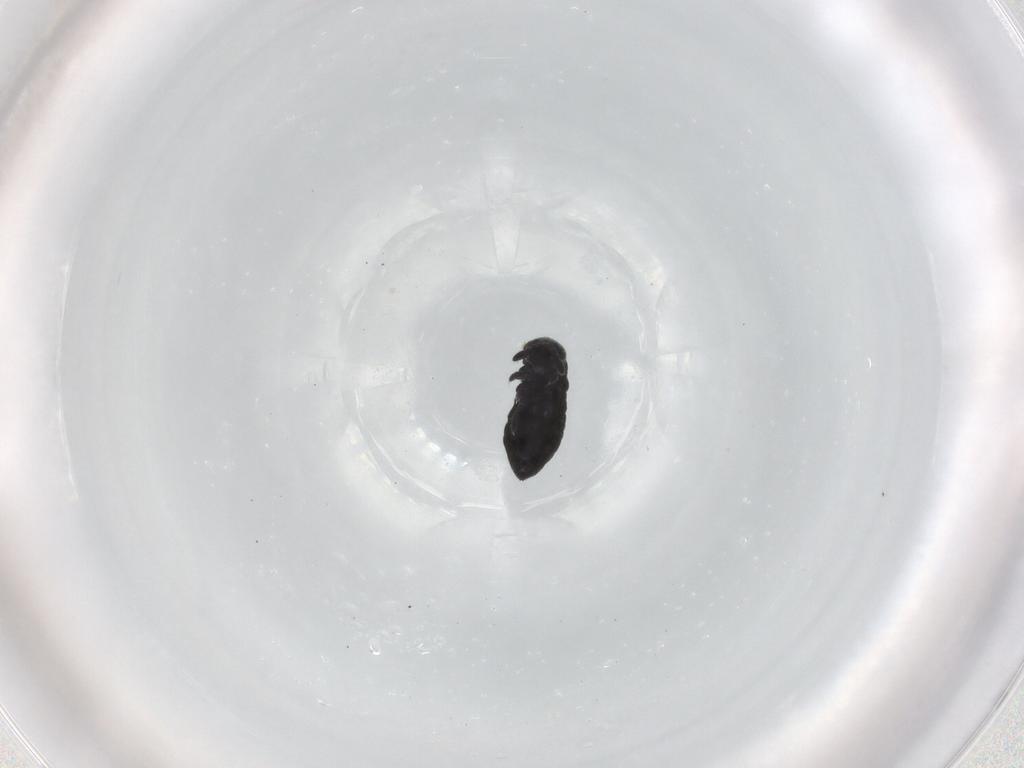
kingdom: Animalia
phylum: Arthropoda
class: Collembola
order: Poduromorpha
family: Hypogastruridae
